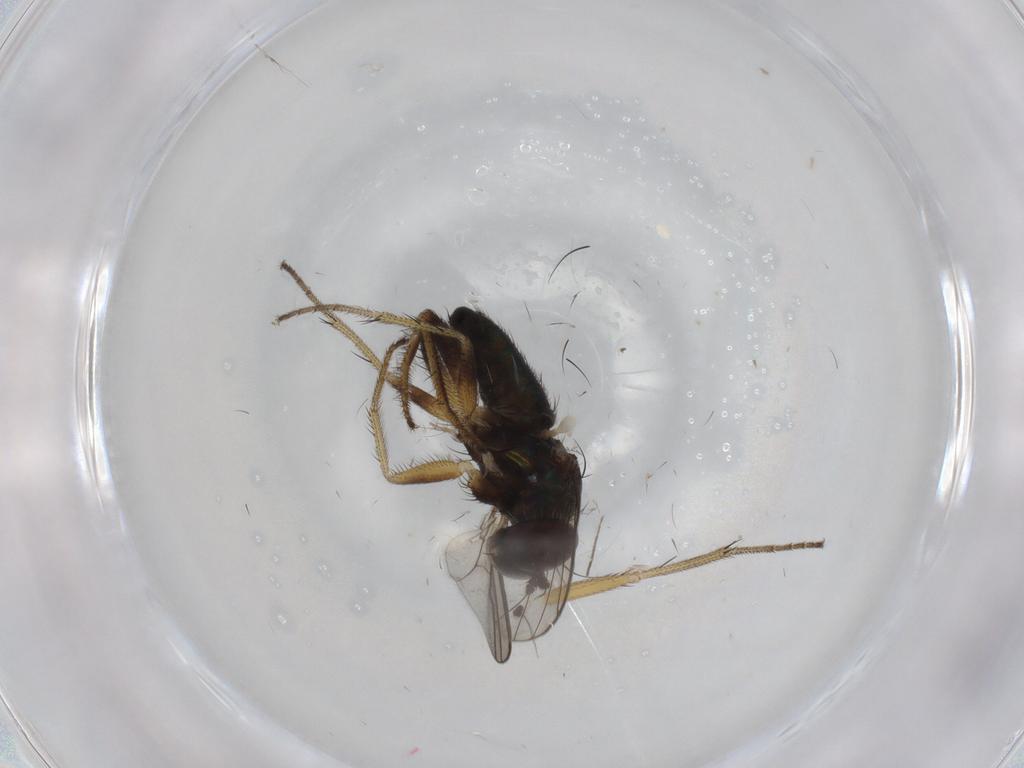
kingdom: Animalia
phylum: Arthropoda
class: Insecta
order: Diptera
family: Dolichopodidae
